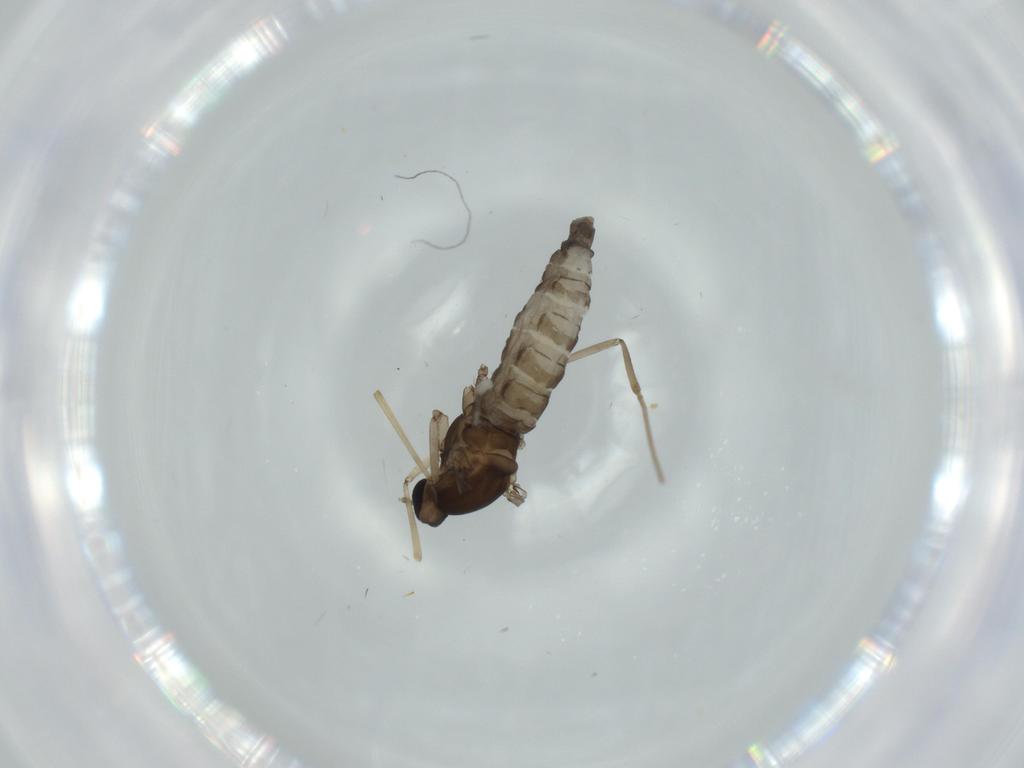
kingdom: Animalia
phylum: Arthropoda
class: Insecta
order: Diptera
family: Cecidomyiidae
